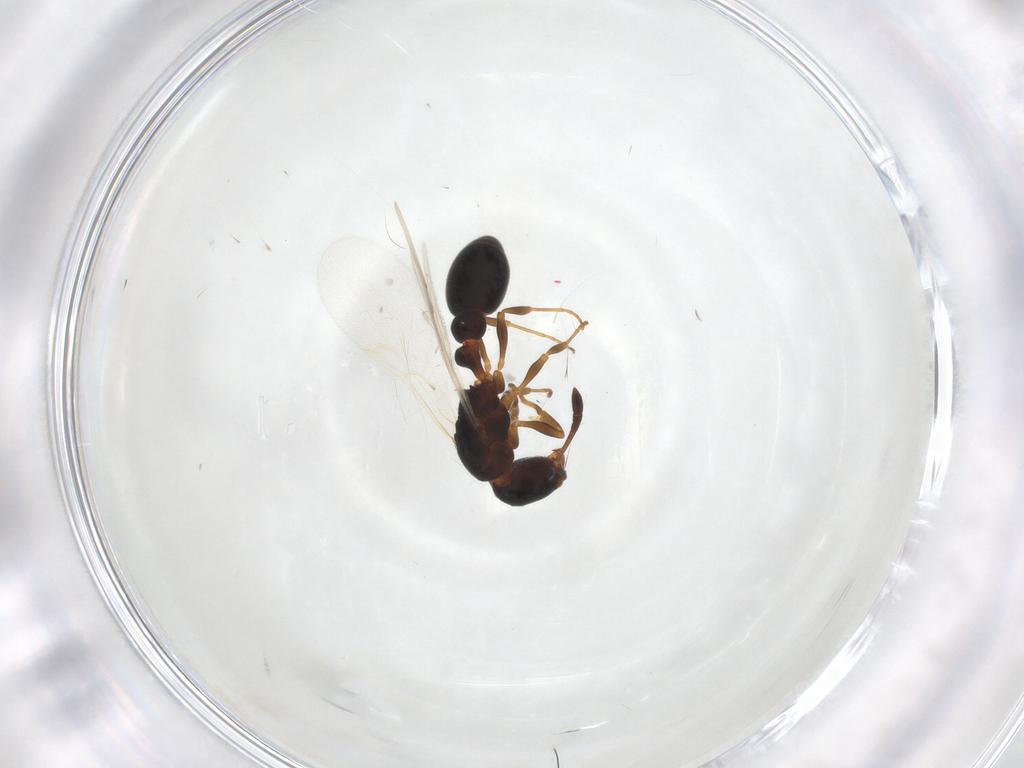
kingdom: Animalia
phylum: Arthropoda
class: Insecta
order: Hymenoptera
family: Formicidae
